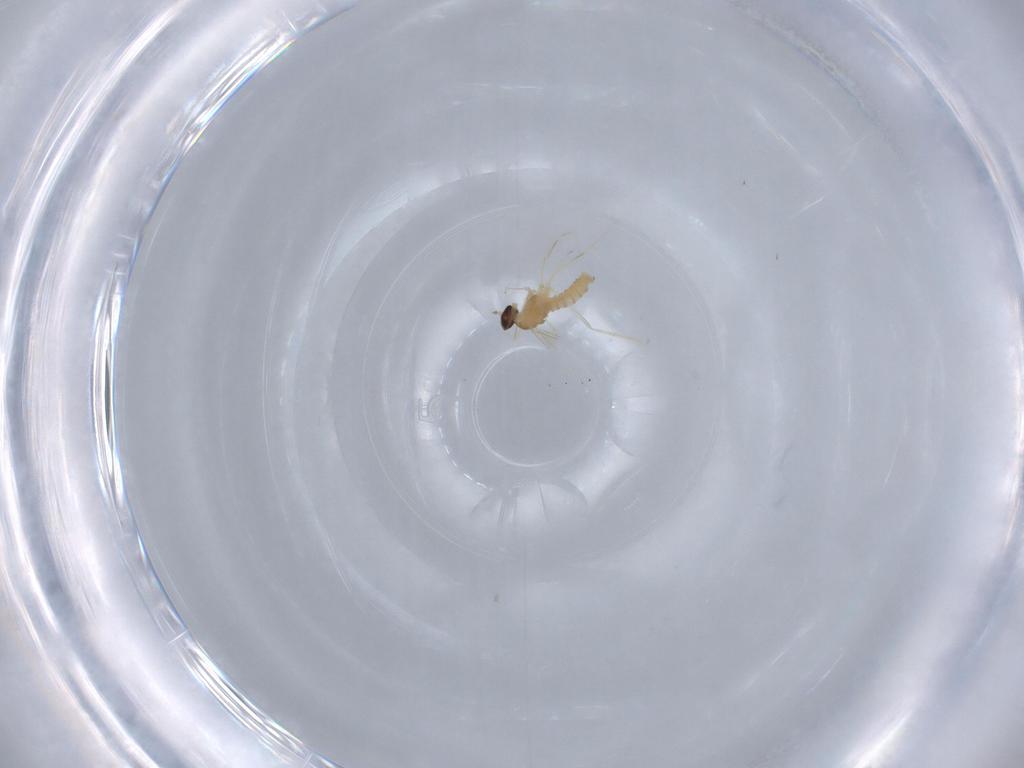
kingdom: Animalia
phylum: Arthropoda
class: Insecta
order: Diptera
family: Cecidomyiidae
